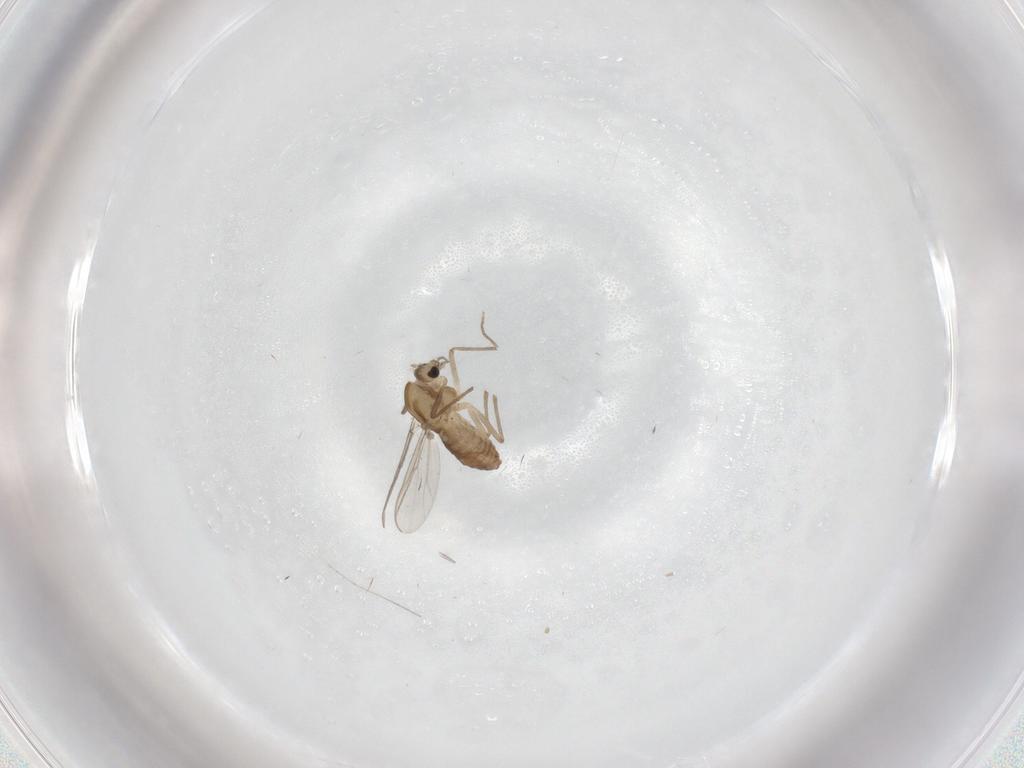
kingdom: Animalia
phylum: Arthropoda
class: Insecta
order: Diptera
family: Chironomidae
